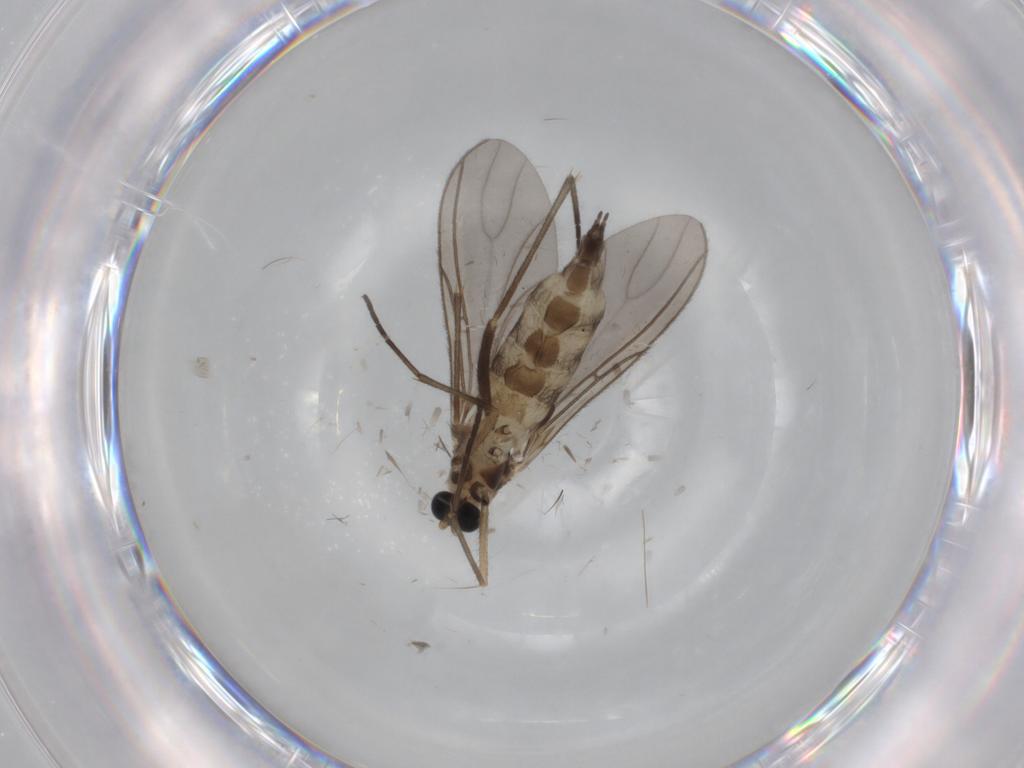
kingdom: Animalia
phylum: Arthropoda
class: Insecta
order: Diptera
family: Sciaridae
